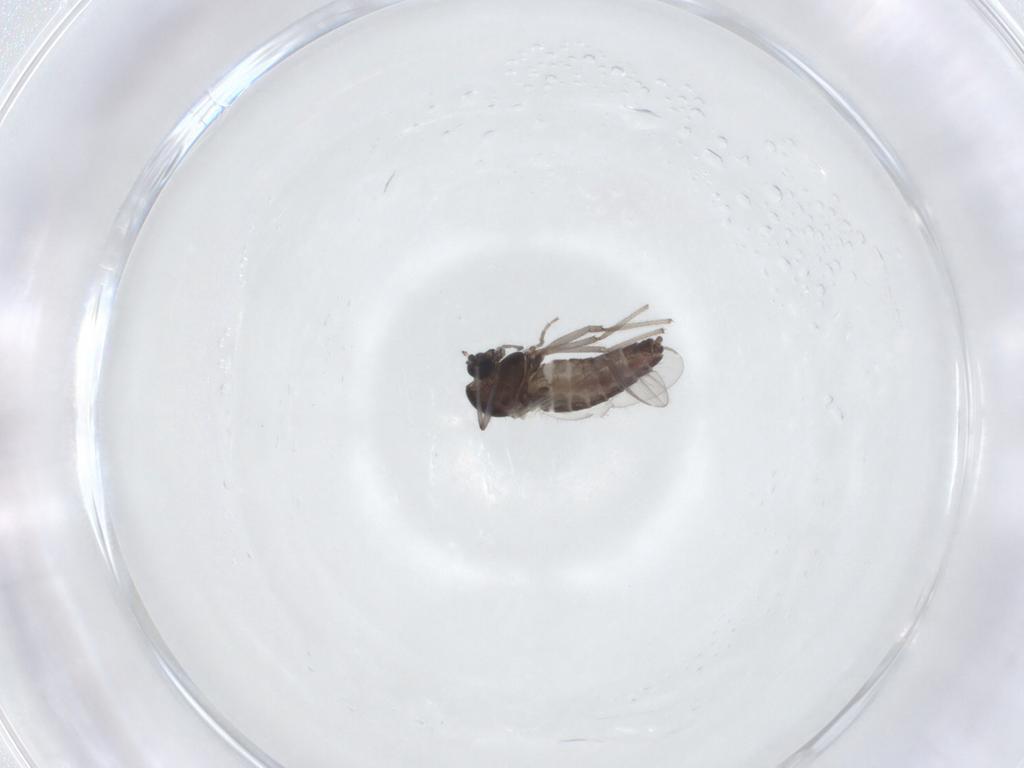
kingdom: Animalia
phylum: Arthropoda
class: Insecta
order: Diptera
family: Chironomidae
